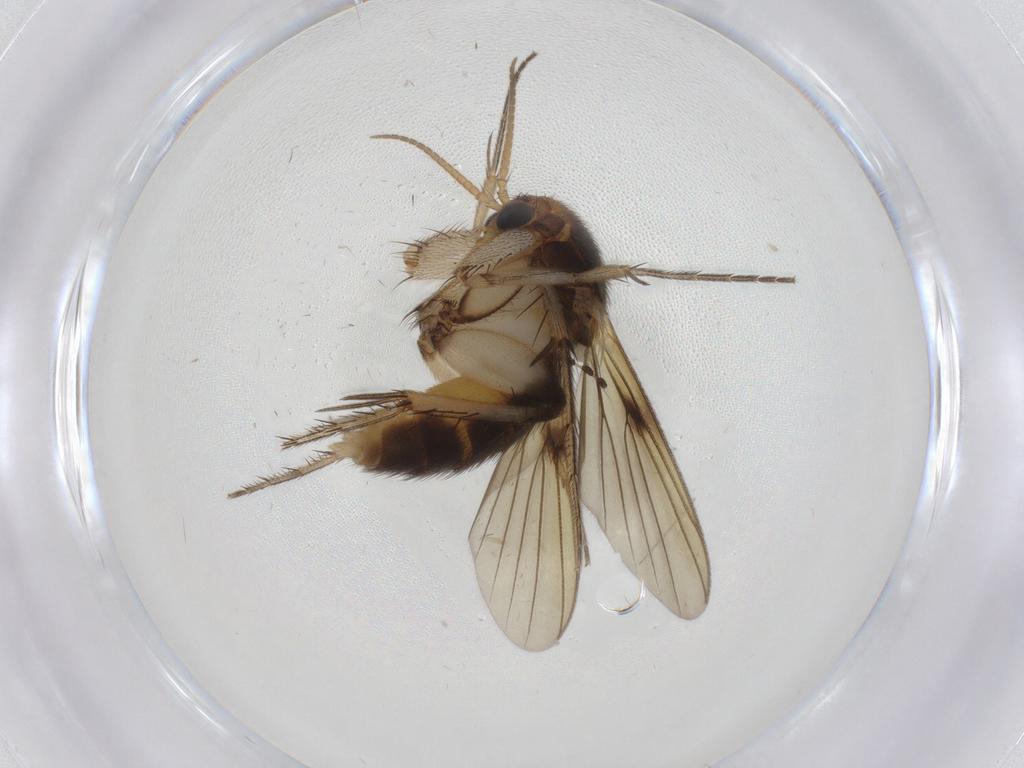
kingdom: Animalia
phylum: Arthropoda
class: Insecta
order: Diptera
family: Mycetophilidae
